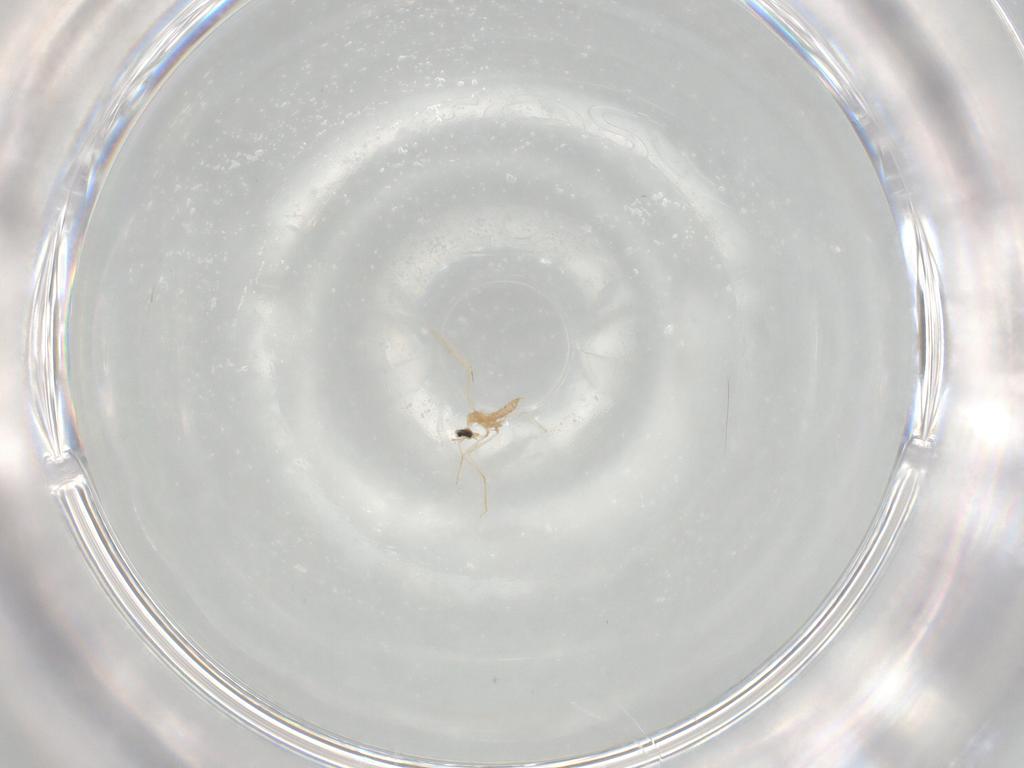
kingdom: Animalia
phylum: Arthropoda
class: Insecta
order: Diptera
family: Cecidomyiidae
